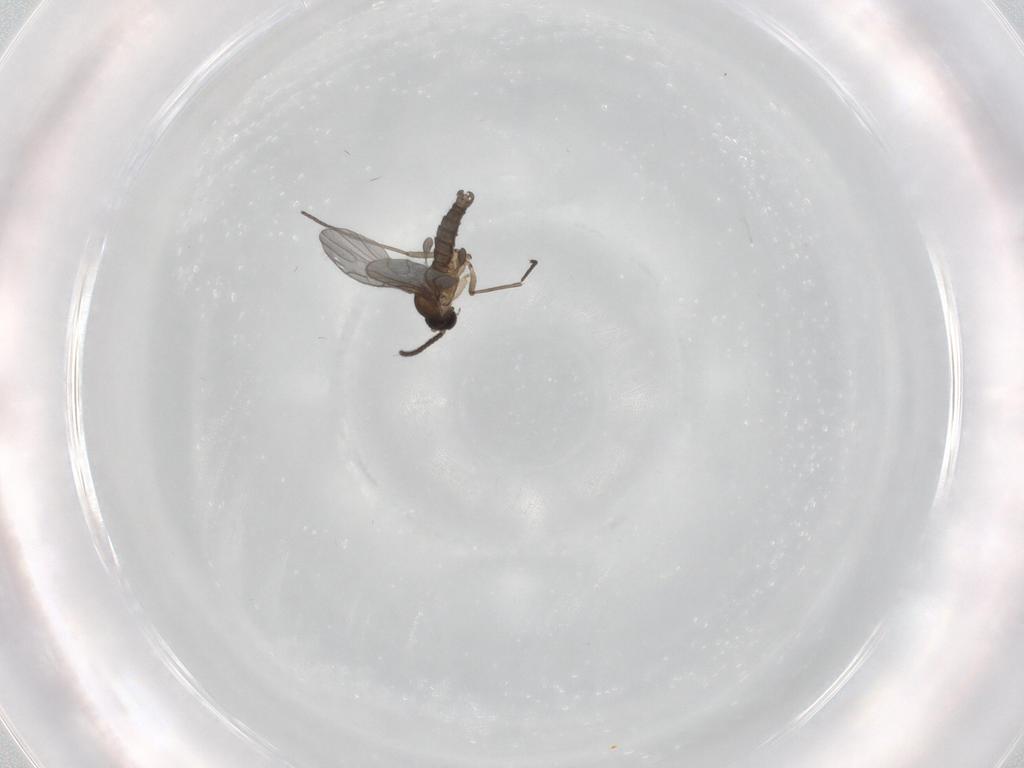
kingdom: Animalia
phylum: Arthropoda
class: Insecta
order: Diptera
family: Sciaridae
